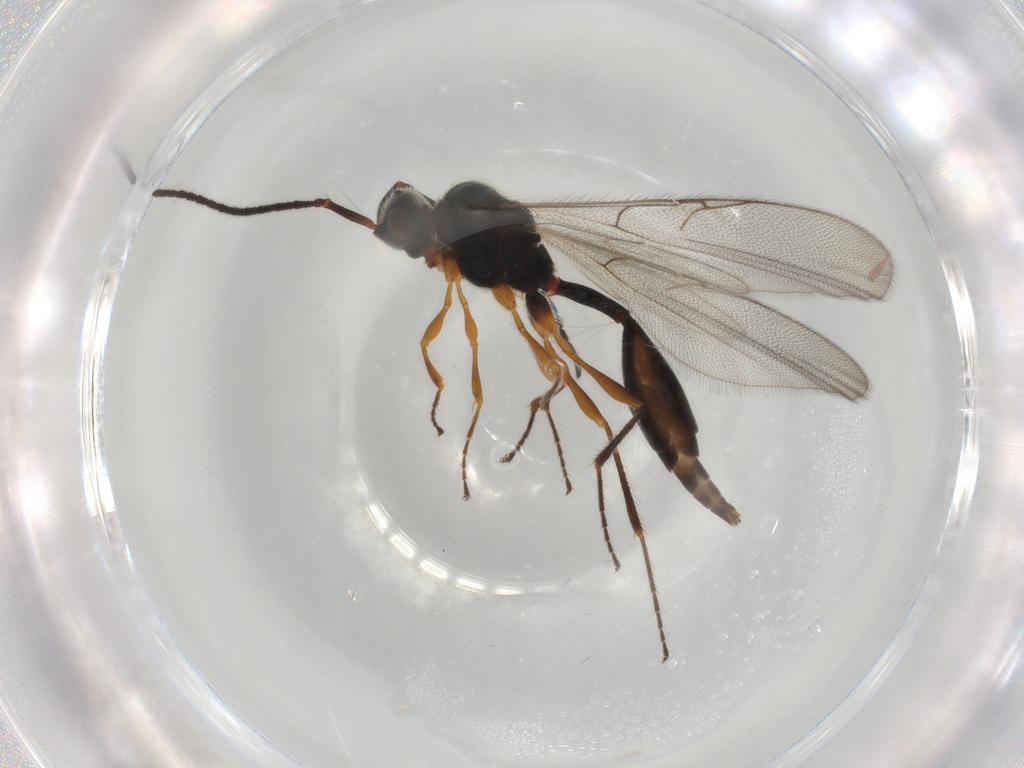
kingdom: Animalia
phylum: Arthropoda
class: Insecta
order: Hymenoptera
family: Diapriidae
